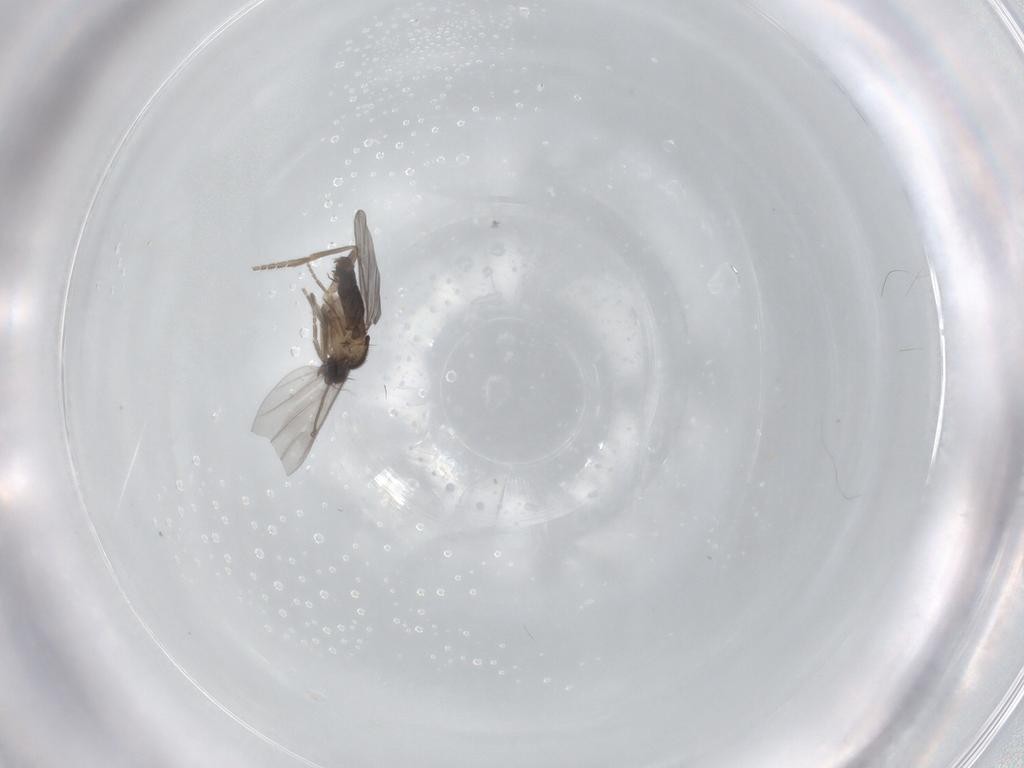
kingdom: Animalia
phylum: Arthropoda
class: Insecta
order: Diptera
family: Phoridae
